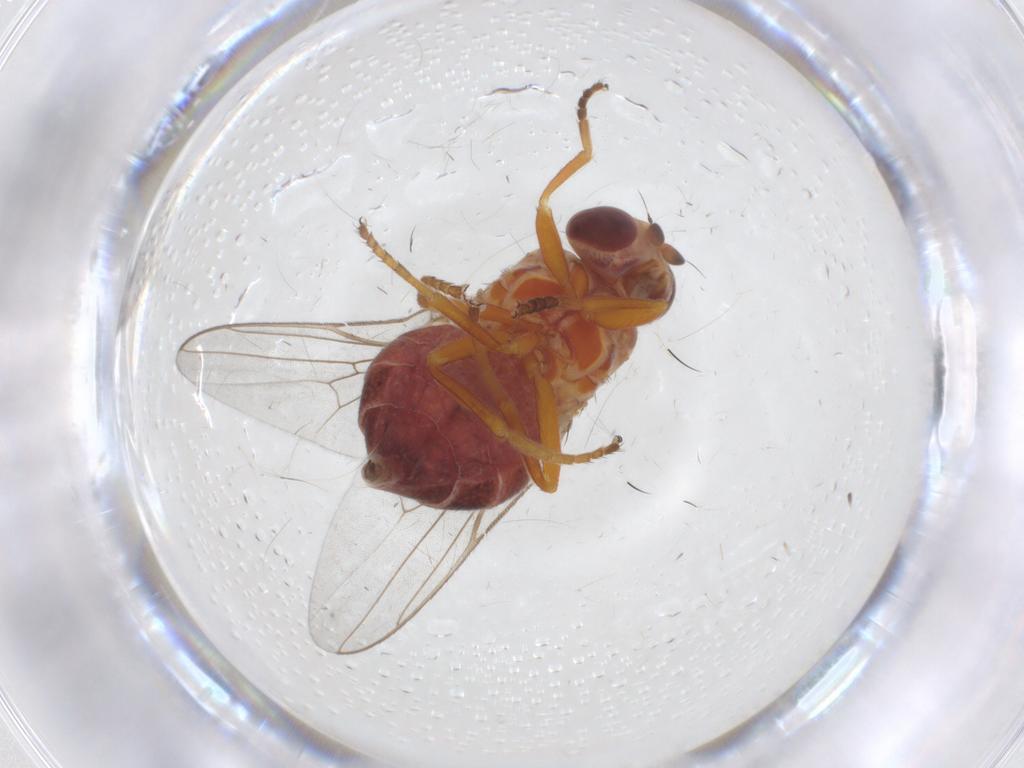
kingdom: Animalia
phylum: Arthropoda
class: Insecta
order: Diptera
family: Chloropidae
